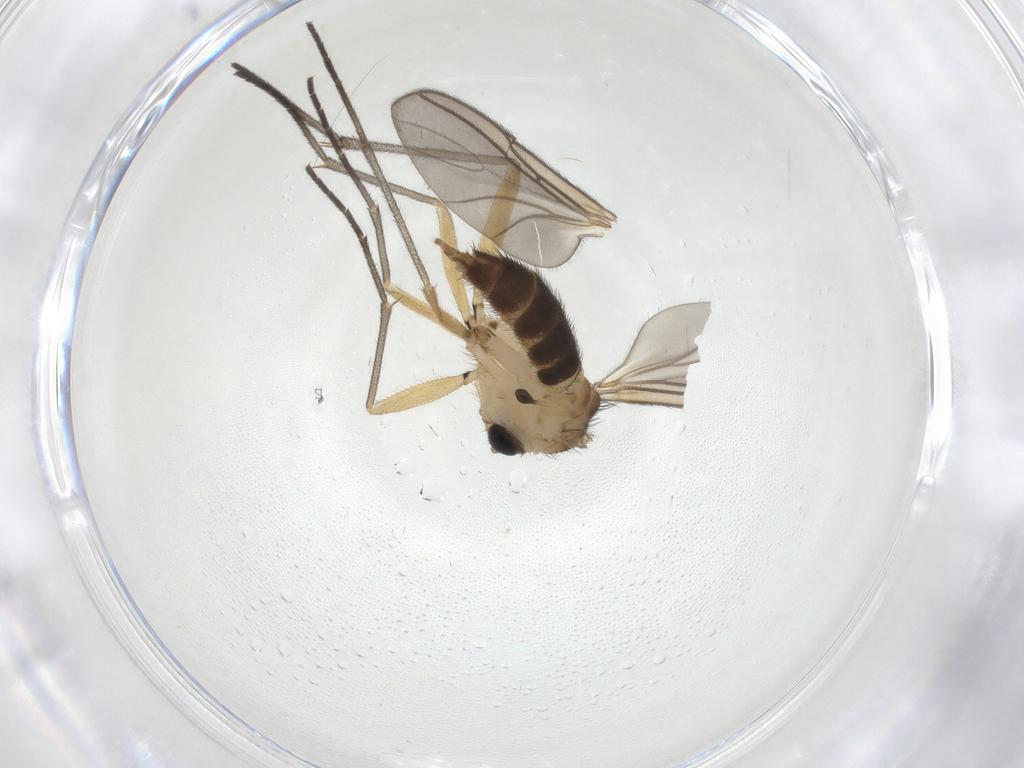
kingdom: Animalia
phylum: Arthropoda
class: Insecta
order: Diptera
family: Sciaridae
